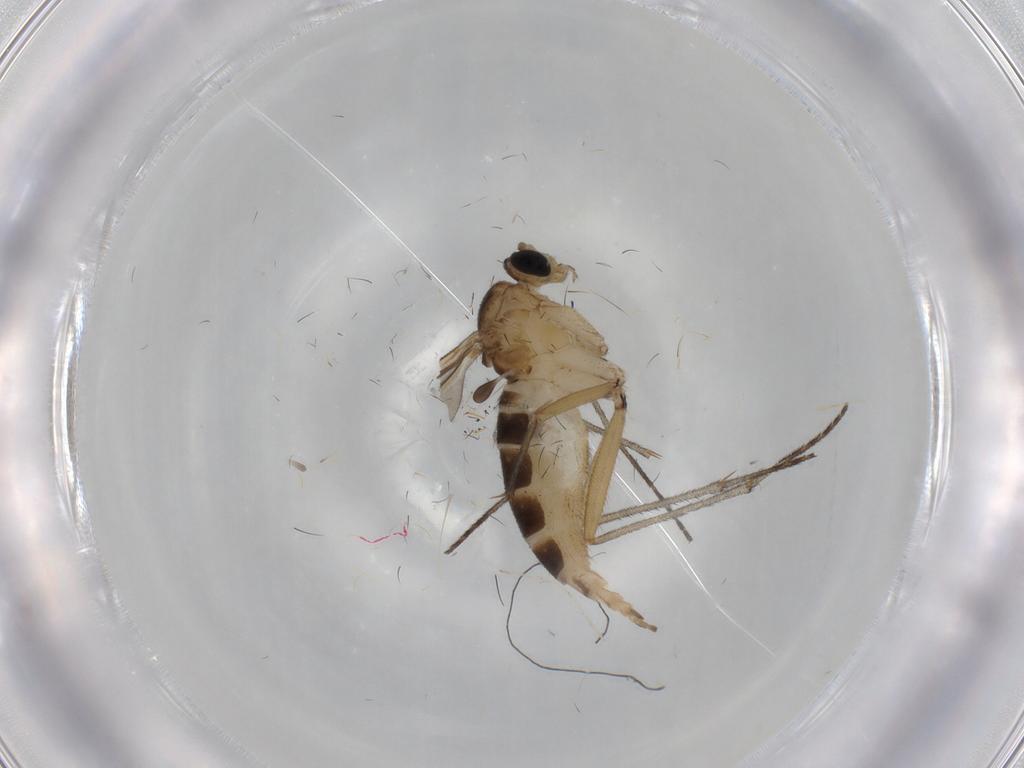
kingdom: Animalia
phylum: Arthropoda
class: Insecta
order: Diptera
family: Sciaridae
